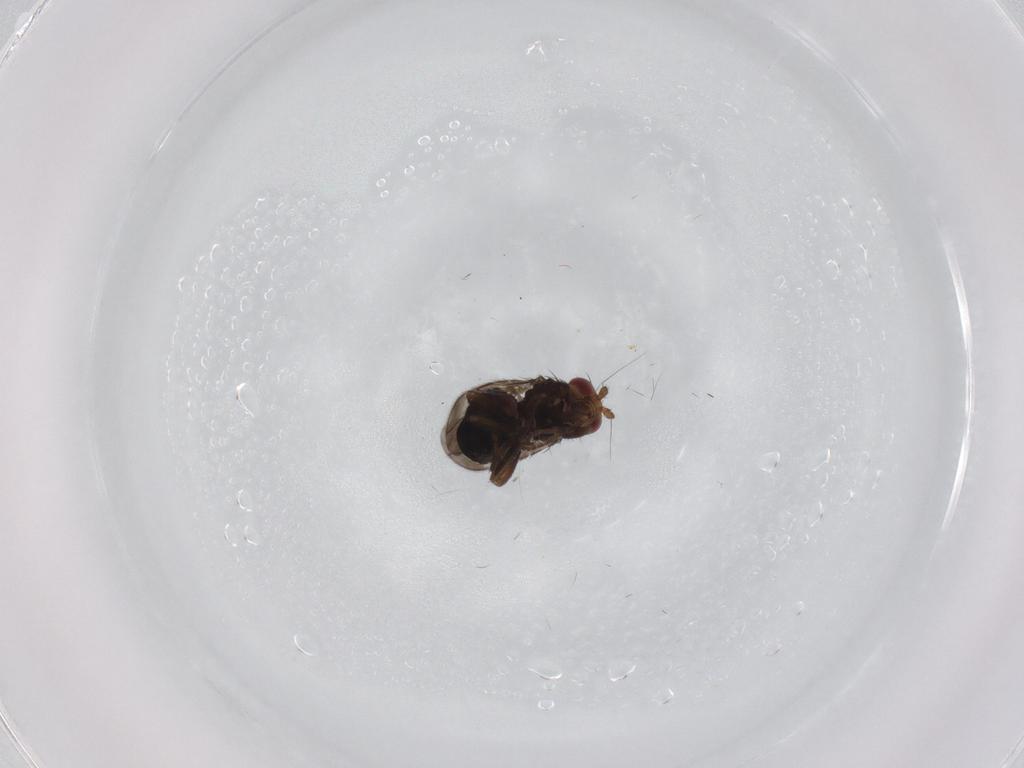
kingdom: Animalia
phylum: Arthropoda
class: Insecta
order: Diptera
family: Sphaeroceridae
